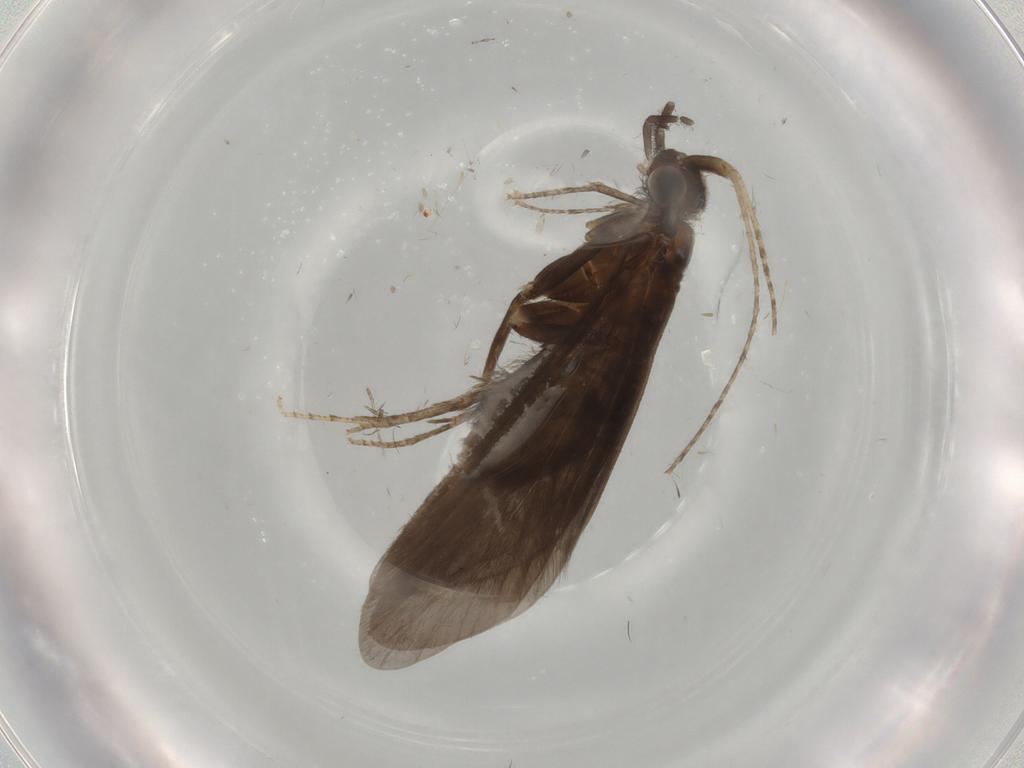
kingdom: Animalia
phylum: Arthropoda
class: Insecta
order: Trichoptera
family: Helicopsychidae
